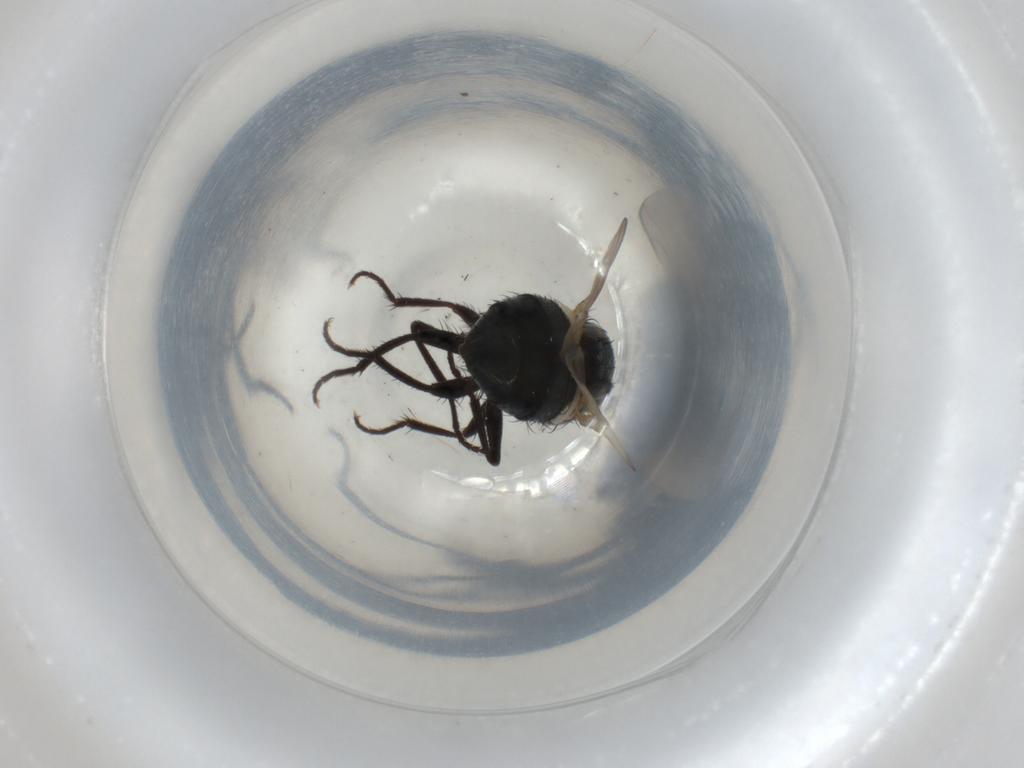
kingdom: Animalia
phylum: Arthropoda
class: Insecta
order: Diptera
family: Muscidae
